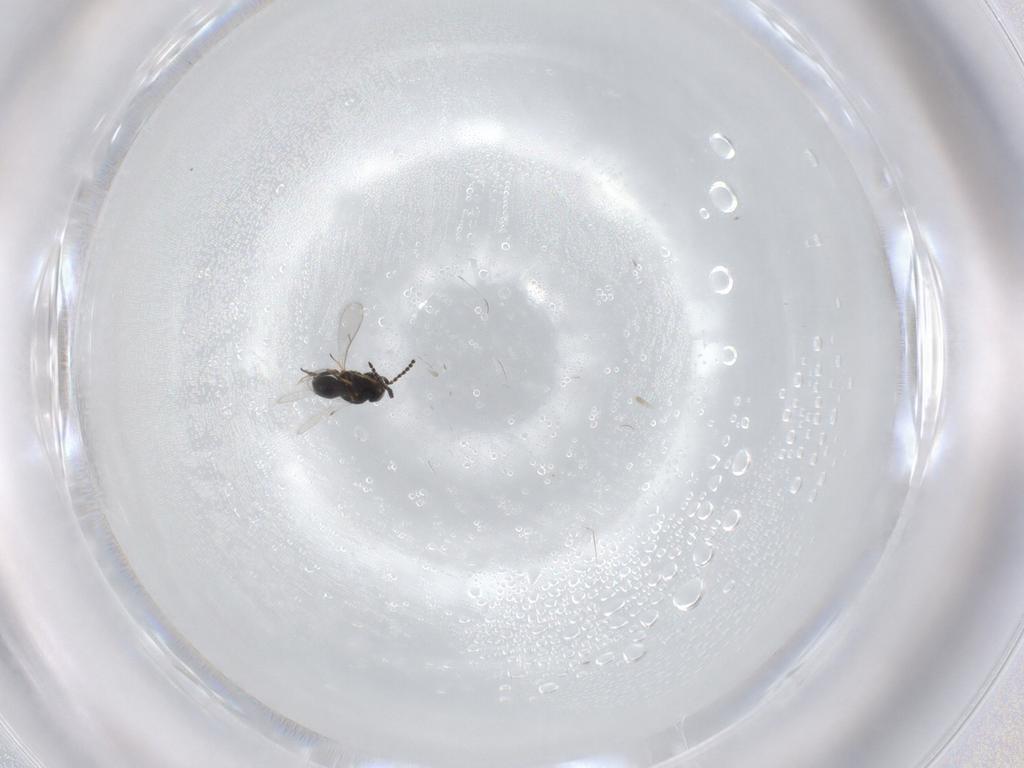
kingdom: Animalia
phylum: Arthropoda
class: Insecta
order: Hymenoptera
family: Scelionidae
